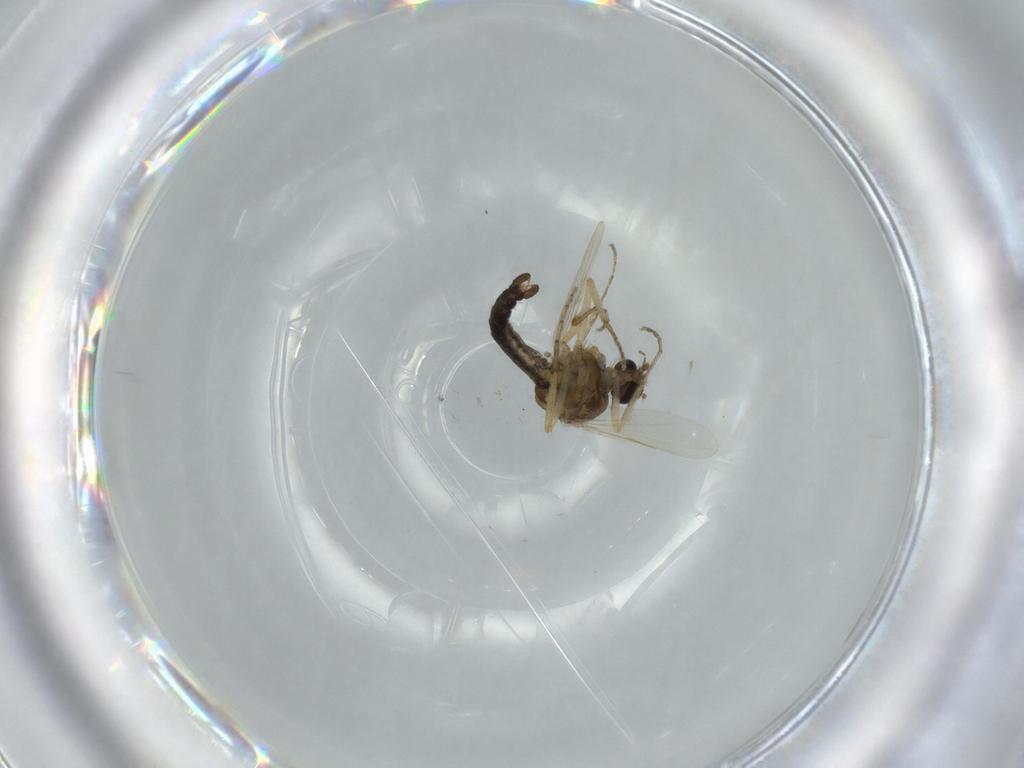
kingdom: Animalia
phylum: Arthropoda
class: Insecta
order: Diptera
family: Ceratopogonidae
